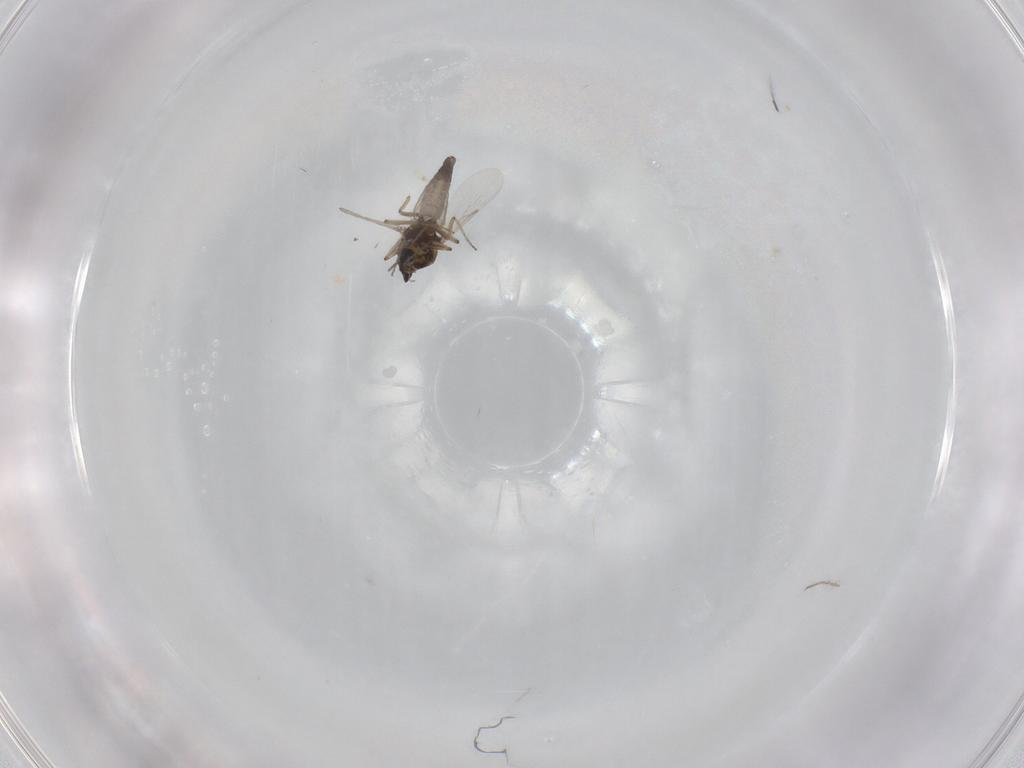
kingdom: Animalia
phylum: Arthropoda
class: Insecta
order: Diptera
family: Ceratopogonidae
